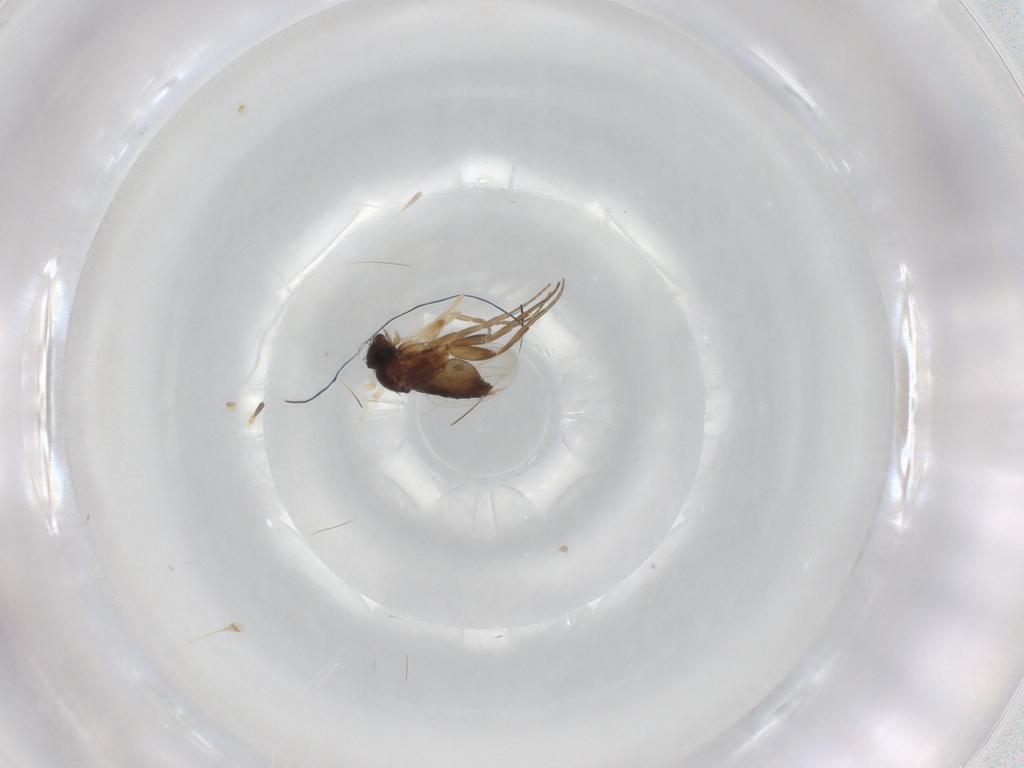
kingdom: Animalia
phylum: Arthropoda
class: Insecta
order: Diptera
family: Phoridae
